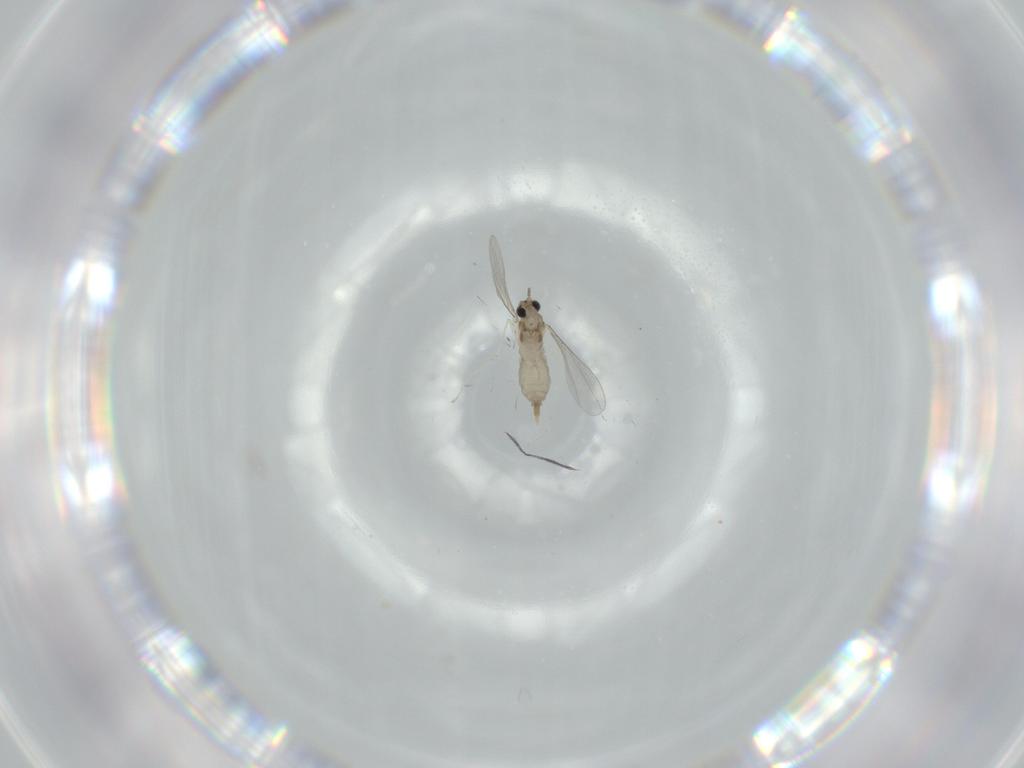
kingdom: Animalia
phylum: Arthropoda
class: Insecta
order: Diptera
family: Phoridae
